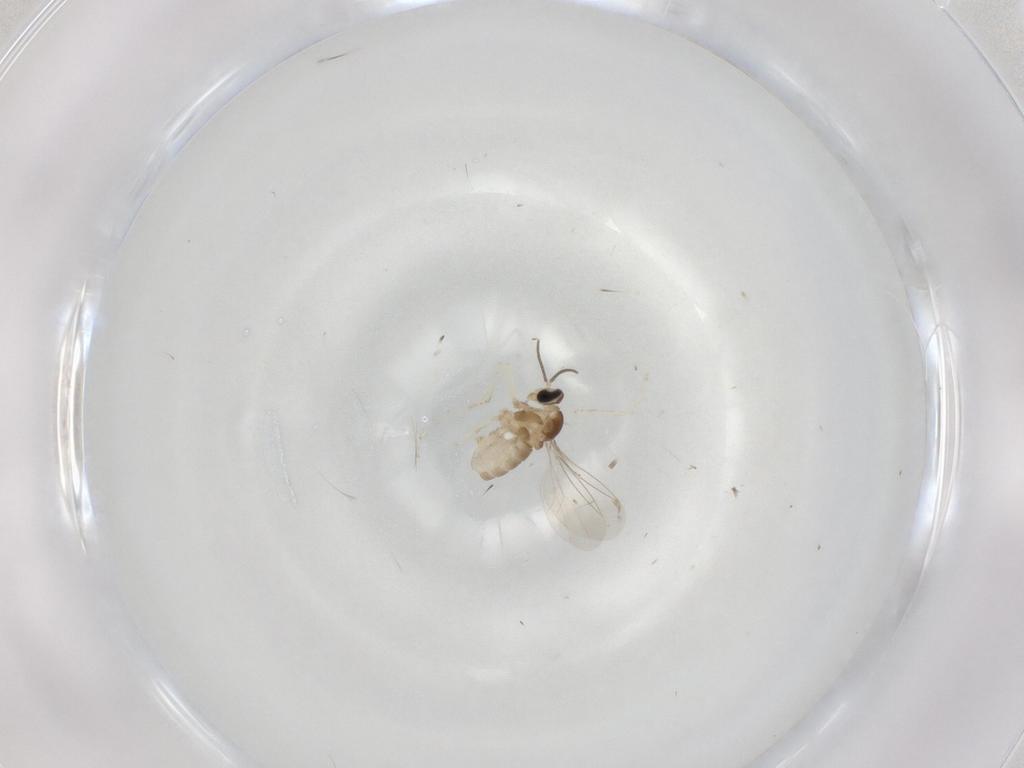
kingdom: Animalia
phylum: Arthropoda
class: Insecta
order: Diptera
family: Cecidomyiidae
